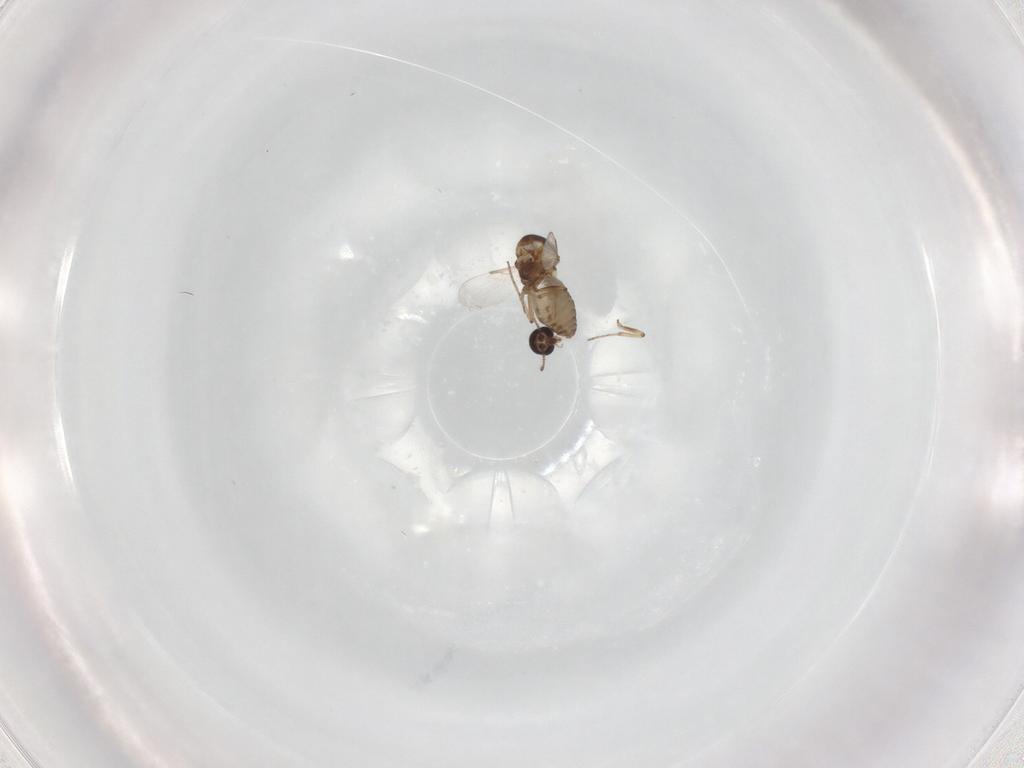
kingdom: Animalia
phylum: Arthropoda
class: Insecta
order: Diptera
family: Ceratopogonidae
